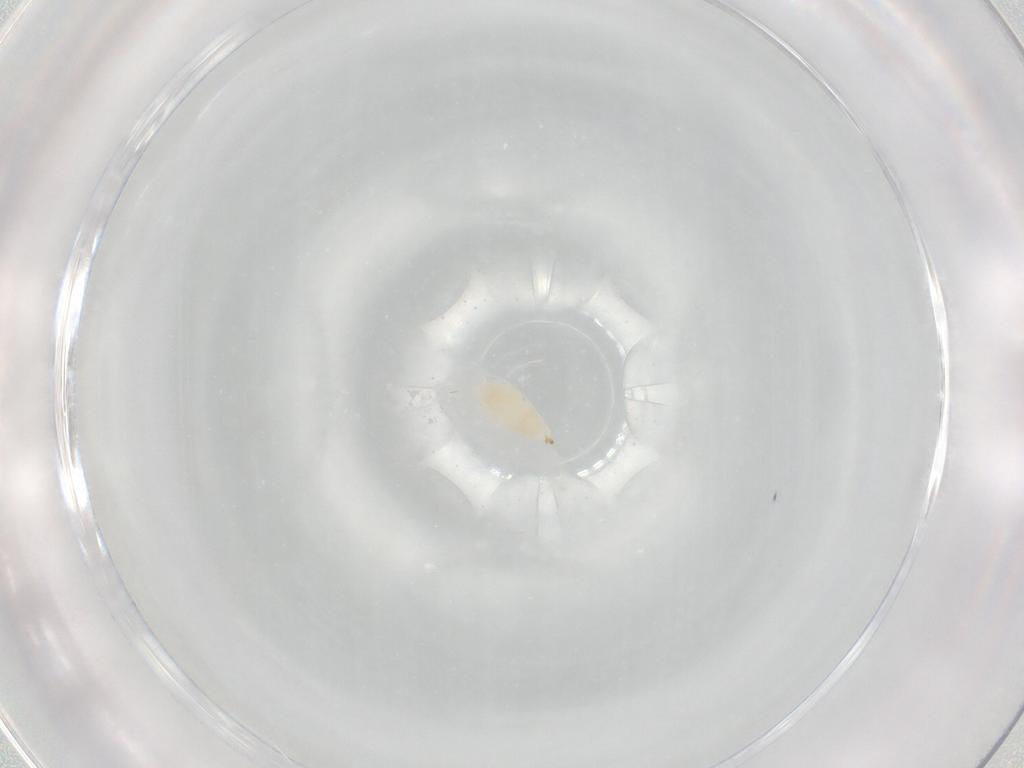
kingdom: Animalia
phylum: Arthropoda
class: Insecta
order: Hymenoptera
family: Ichneumonidae
